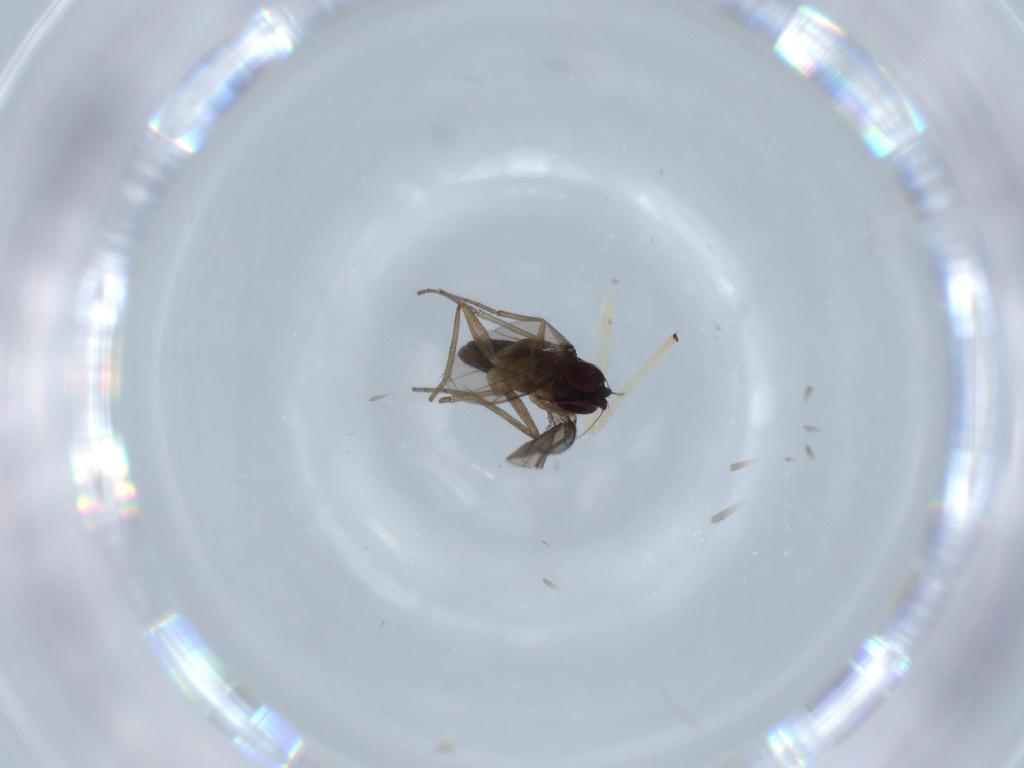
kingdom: Animalia
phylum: Arthropoda
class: Insecta
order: Diptera
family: Dolichopodidae
